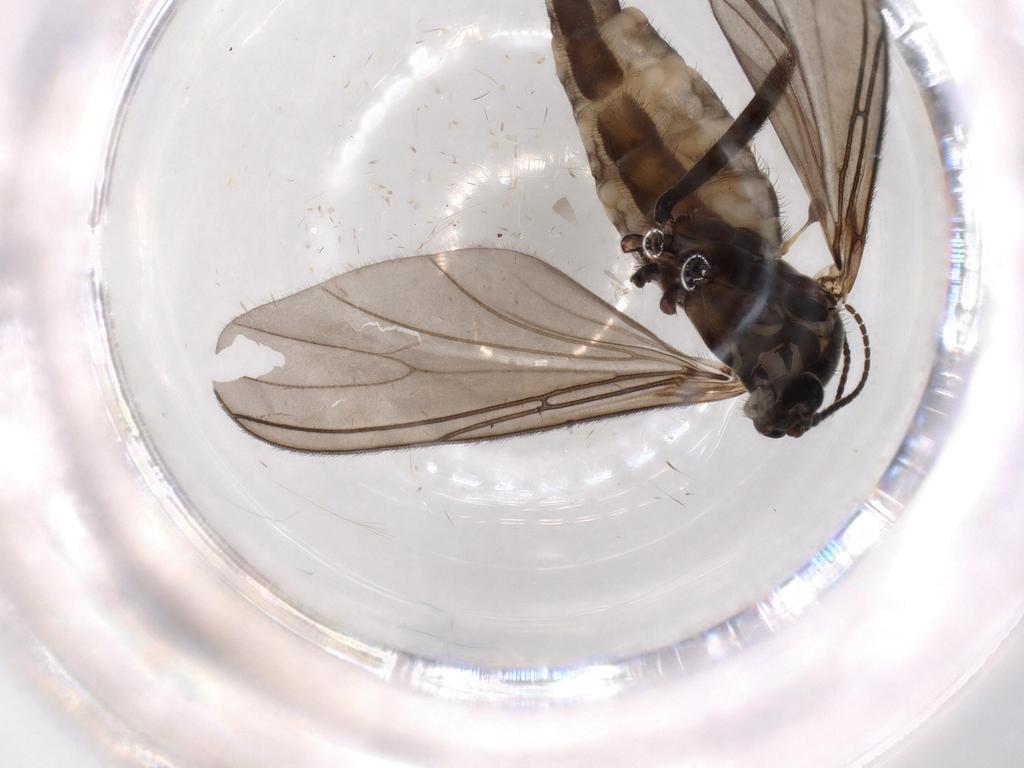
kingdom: Animalia
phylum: Arthropoda
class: Insecta
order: Diptera
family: Sciaridae
